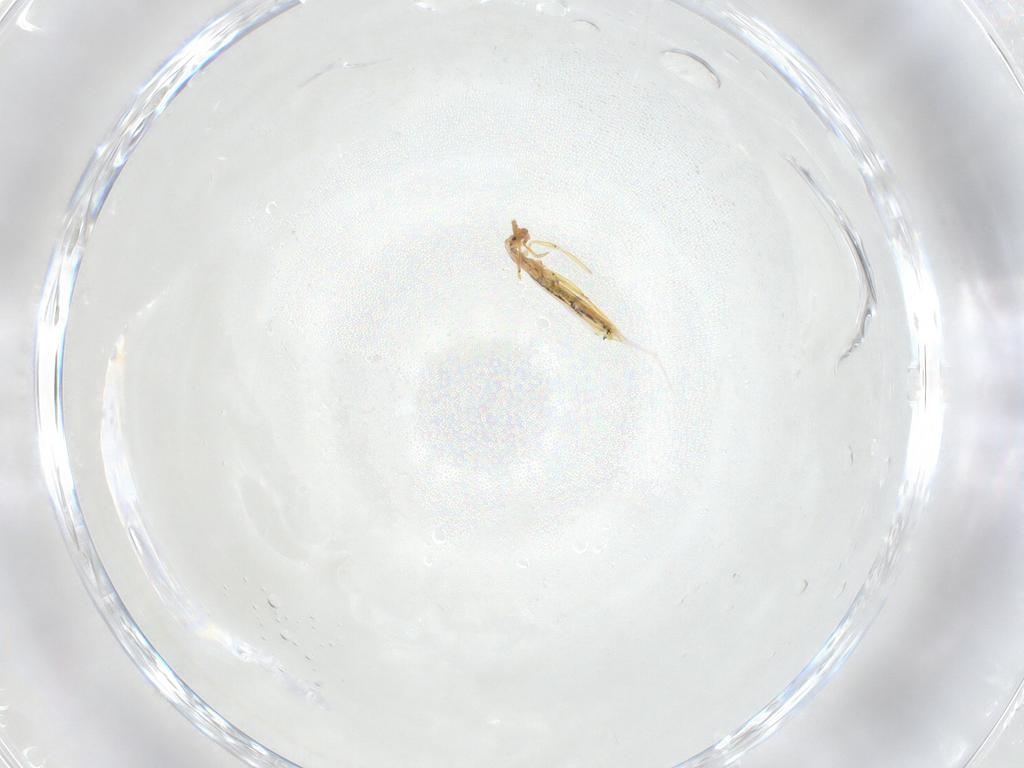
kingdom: Animalia
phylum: Arthropoda
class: Collembola
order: Entomobryomorpha
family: Entomobryidae
